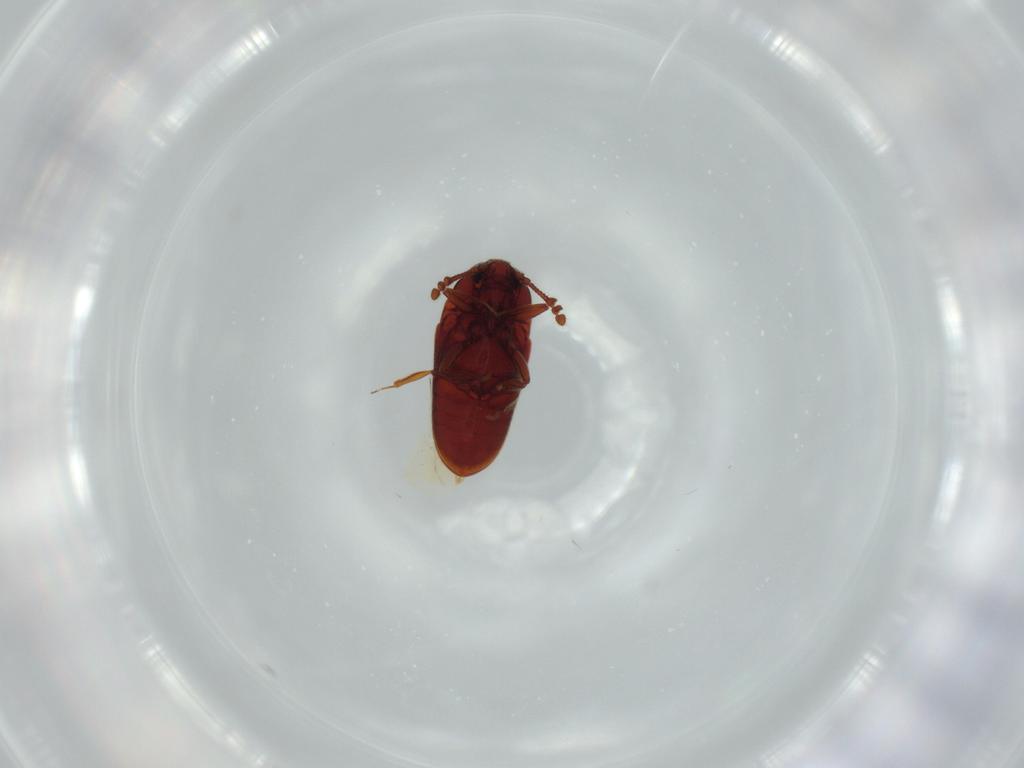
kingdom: Animalia
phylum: Arthropoda
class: Insecta
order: Coleoptera
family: Throscidae
